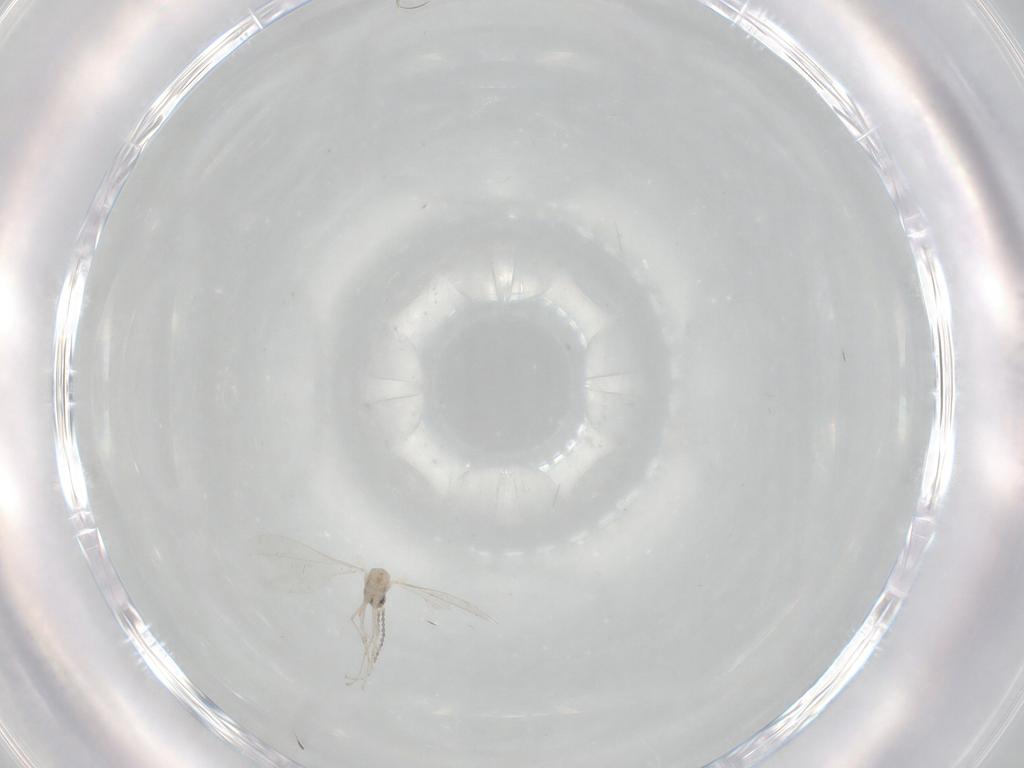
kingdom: Animalia
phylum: Arthropoda
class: Insecta
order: Diptera
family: Cecidomyiidae
